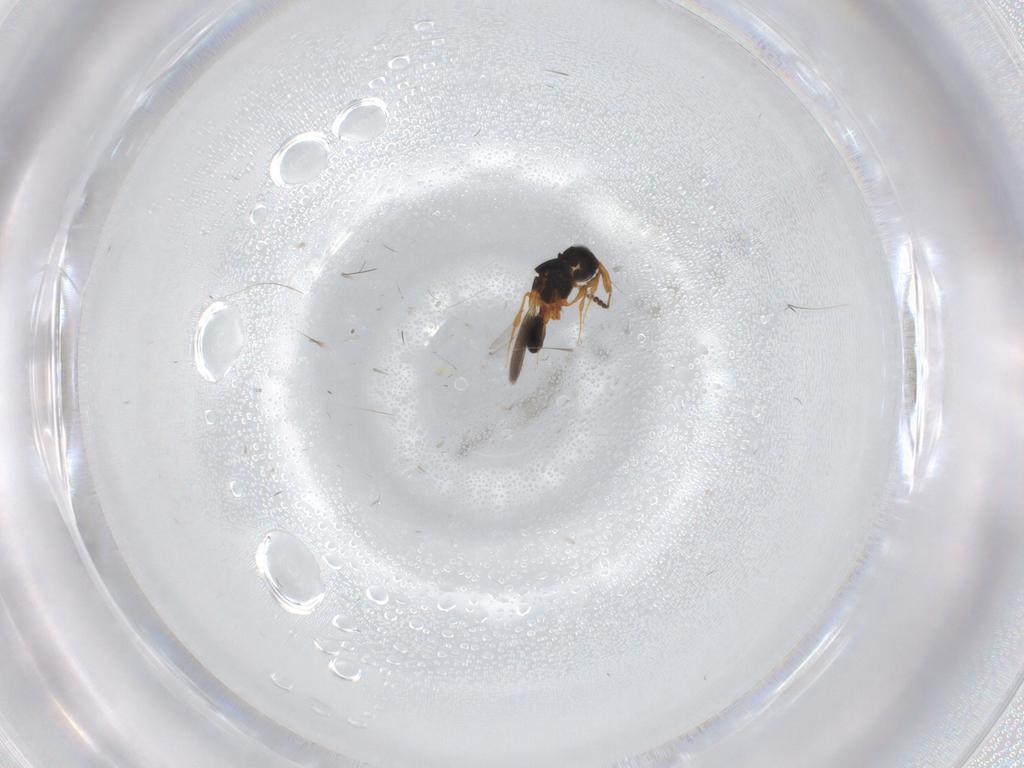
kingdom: Animalia
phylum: Arthropoda
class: Insecta
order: Hymenoptera
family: Platygastridae
